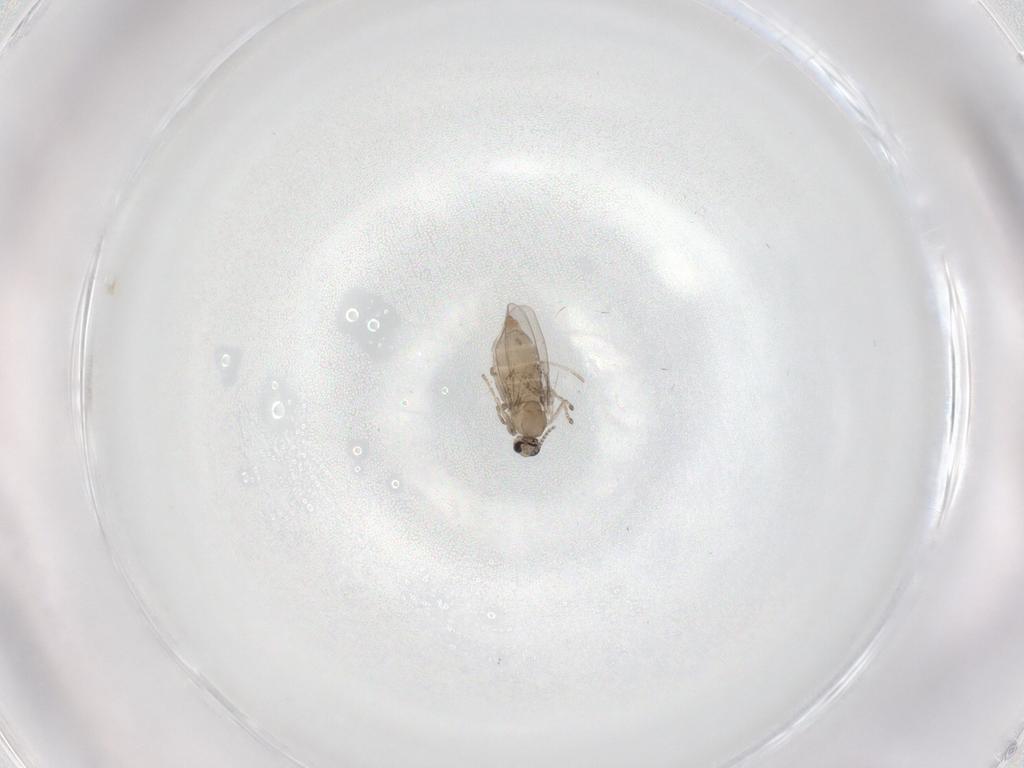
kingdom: Animalia
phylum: Arthropoda
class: Insecta
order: Diptera
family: Cecidomyiidae
